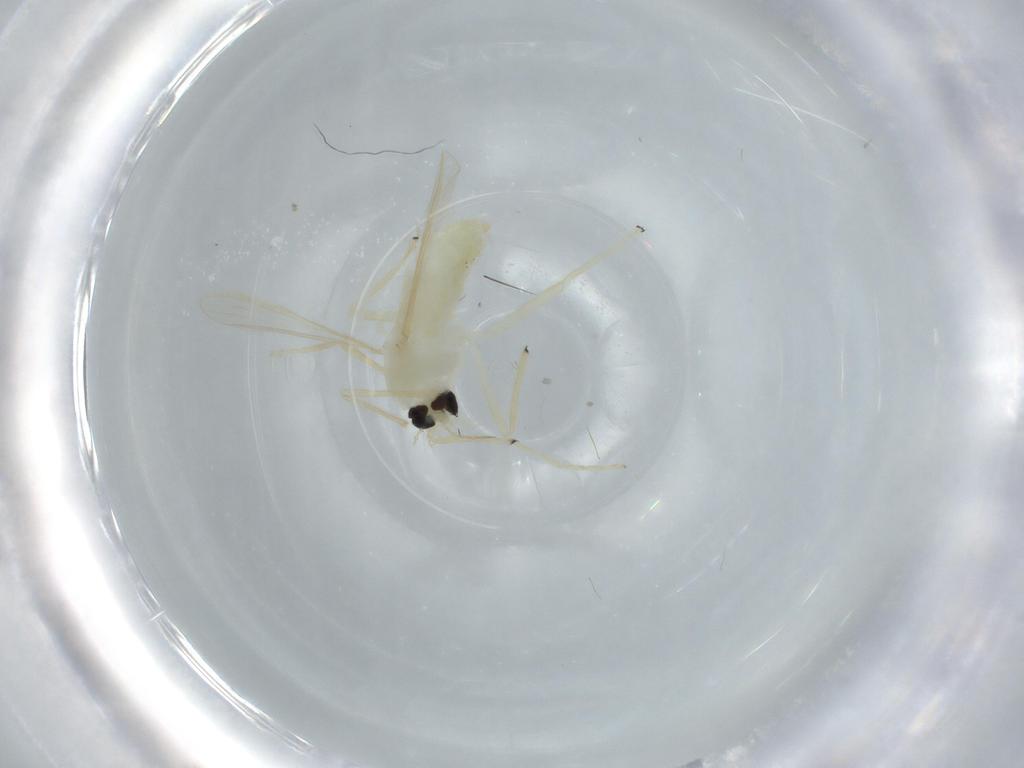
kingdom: Animalia
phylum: Arthropoda
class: Insecta
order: Diptera
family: Chironomidae
